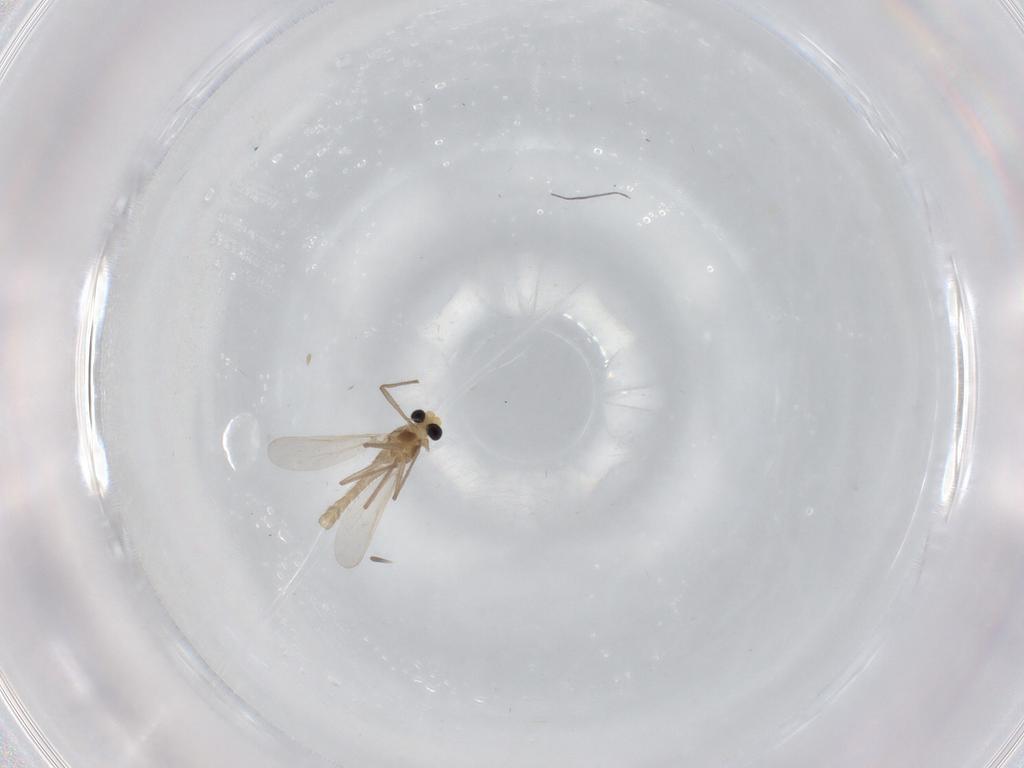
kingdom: Animalia
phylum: Arthropoda
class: Insecta
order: Diptera
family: Psychodidae
